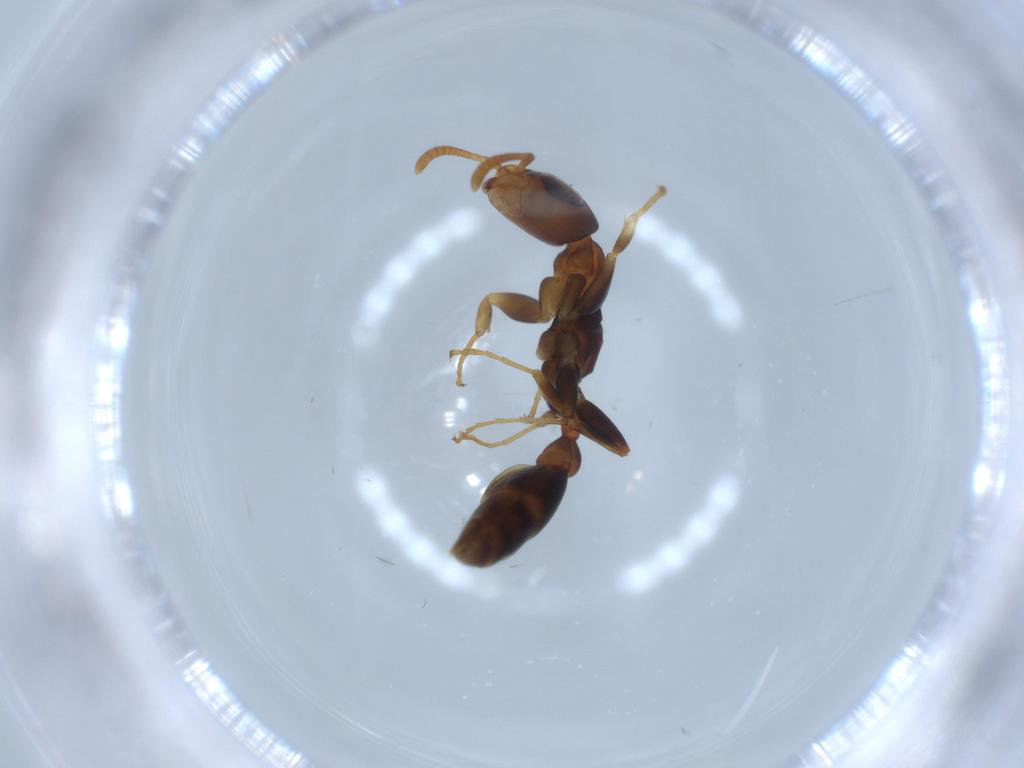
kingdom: Animalia
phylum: Arthropoda
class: Insecta
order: Hymenoptera
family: Formicidae
